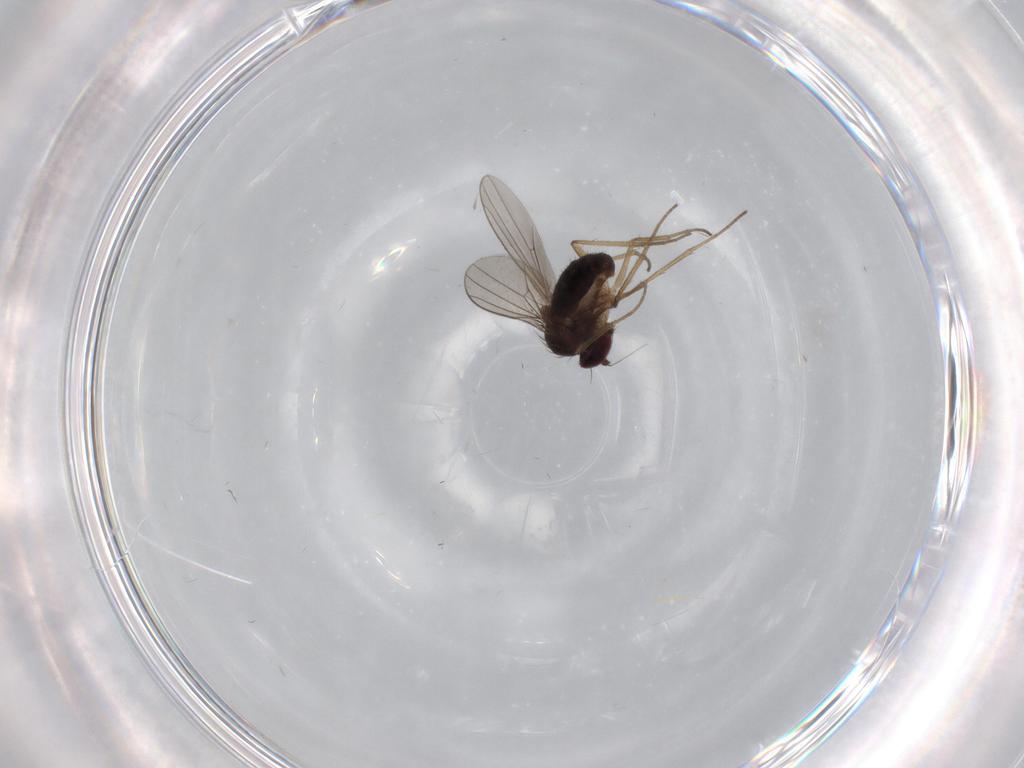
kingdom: Animalia
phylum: Arthropoda
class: Insecta
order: Diptera
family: Dolichopodidae
